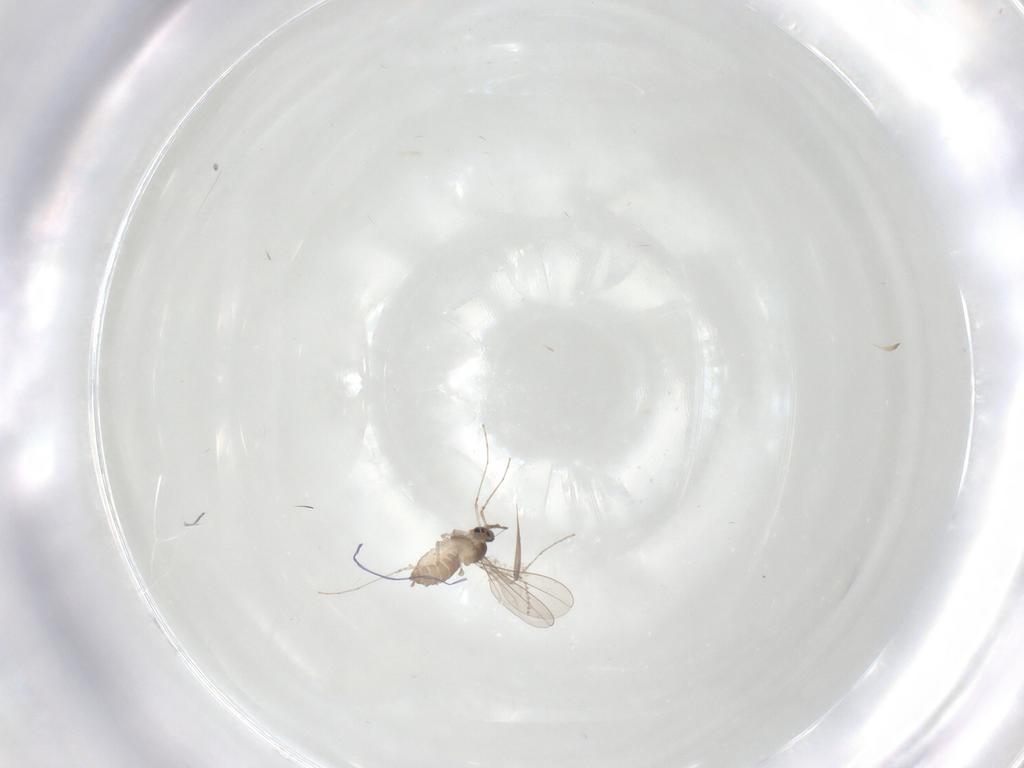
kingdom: Animalia
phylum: Arthropoda
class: Insecta
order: Diptera
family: Cecidomyiidae
